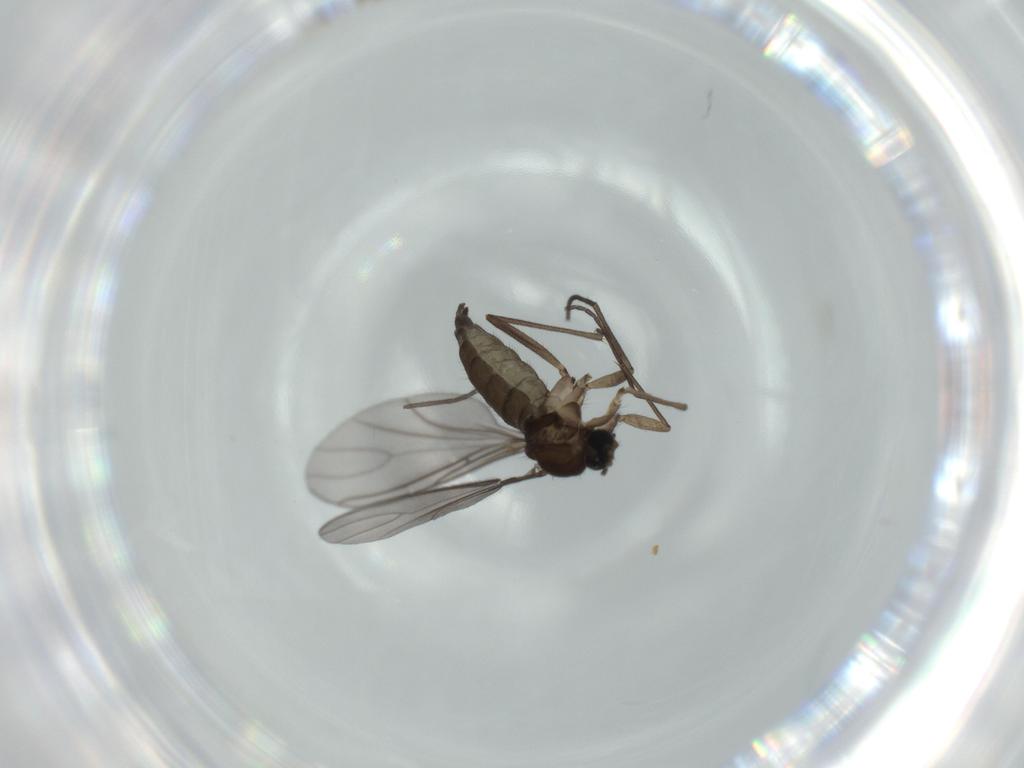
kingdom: Animalia
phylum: Arthropoda
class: Insecta
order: Diptera
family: Sciaridae
